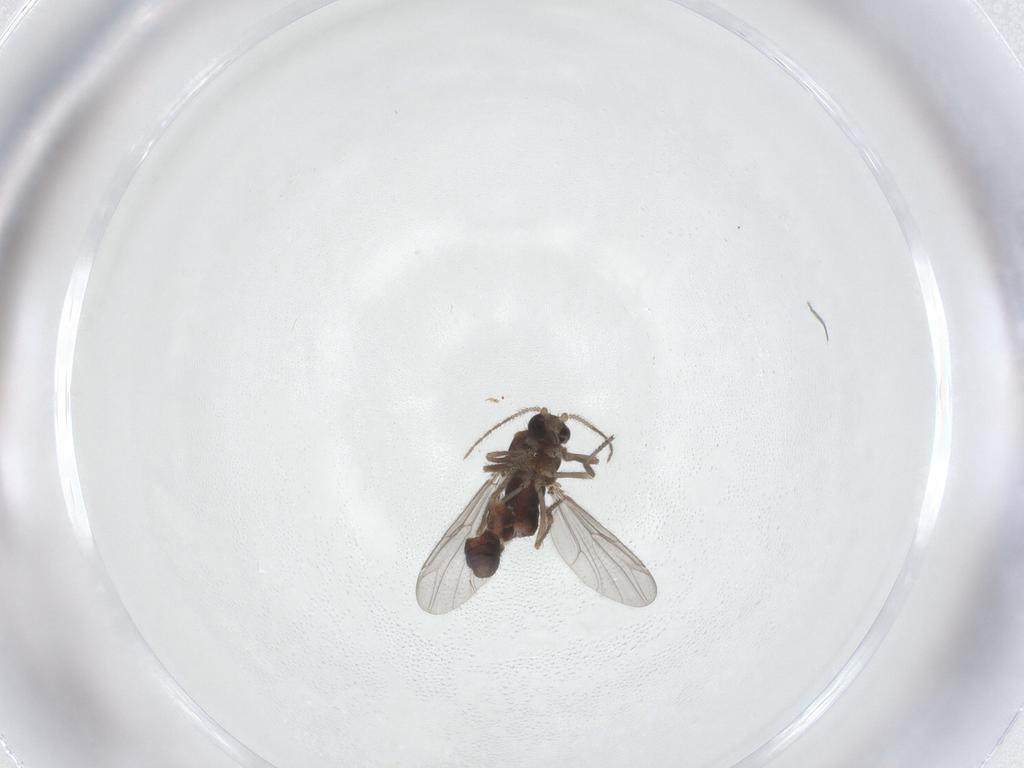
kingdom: Animalia
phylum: Arthropoda
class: Insecta
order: Diptera
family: Ceratopogonidae
